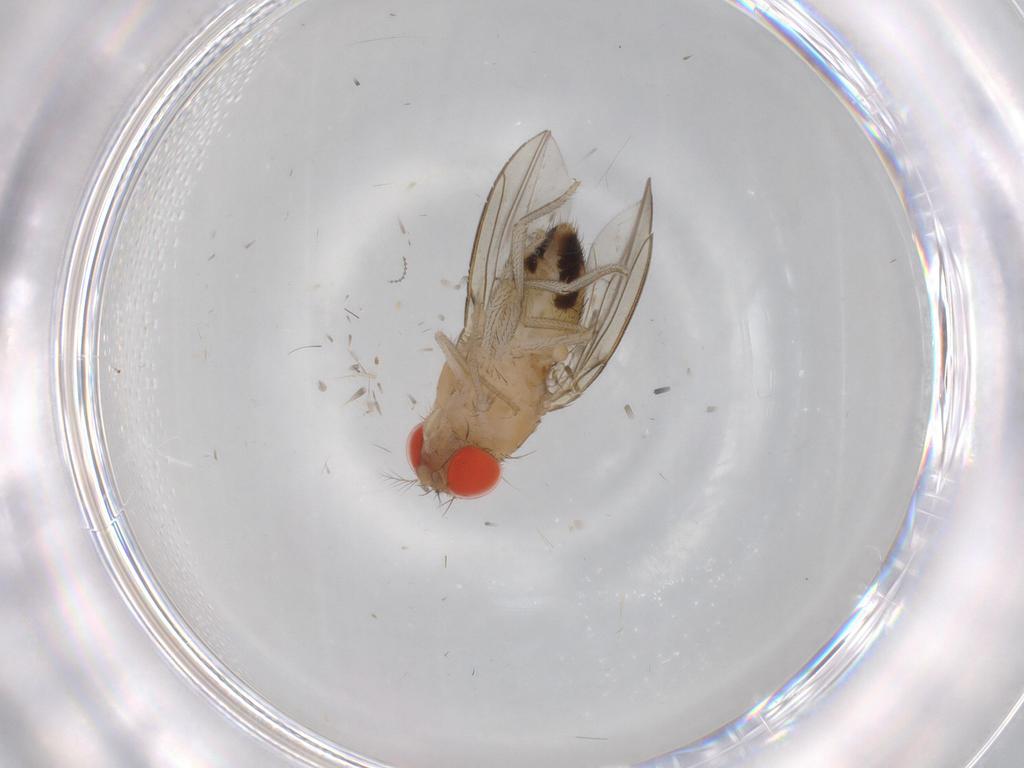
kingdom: Animalia
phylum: Arthropoda
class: Insecta
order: Diptera
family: Drosophilidae
